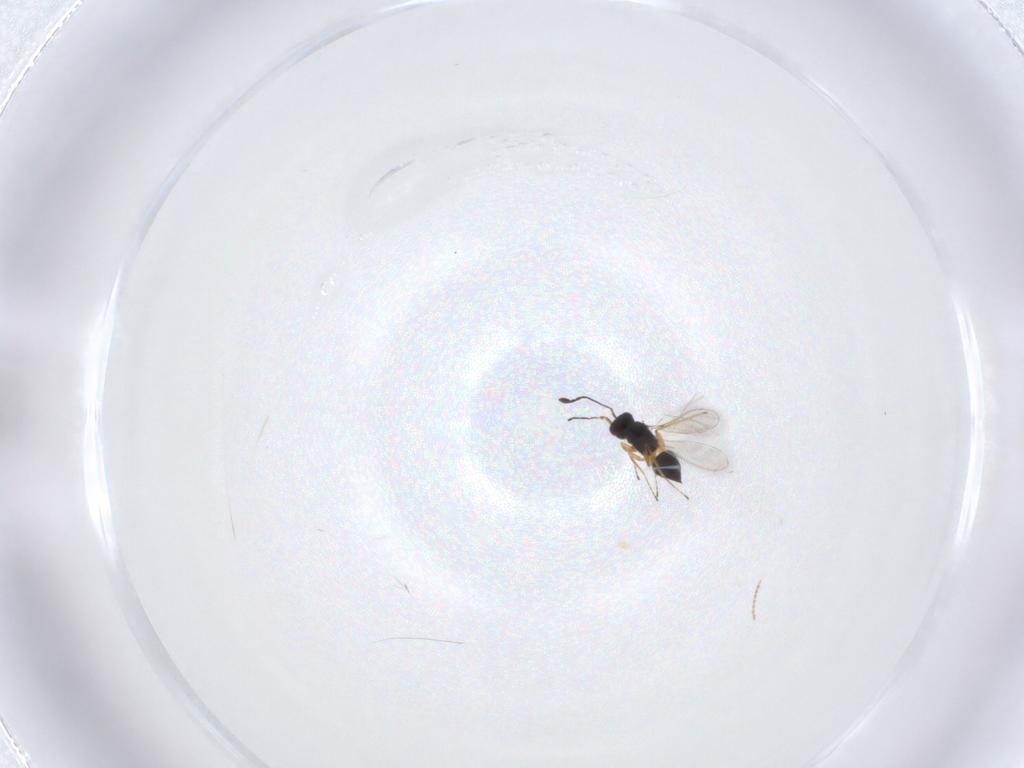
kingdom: Animalia
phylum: Arthropoda
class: Insecta
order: Hymenoptera
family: Mymaridae
